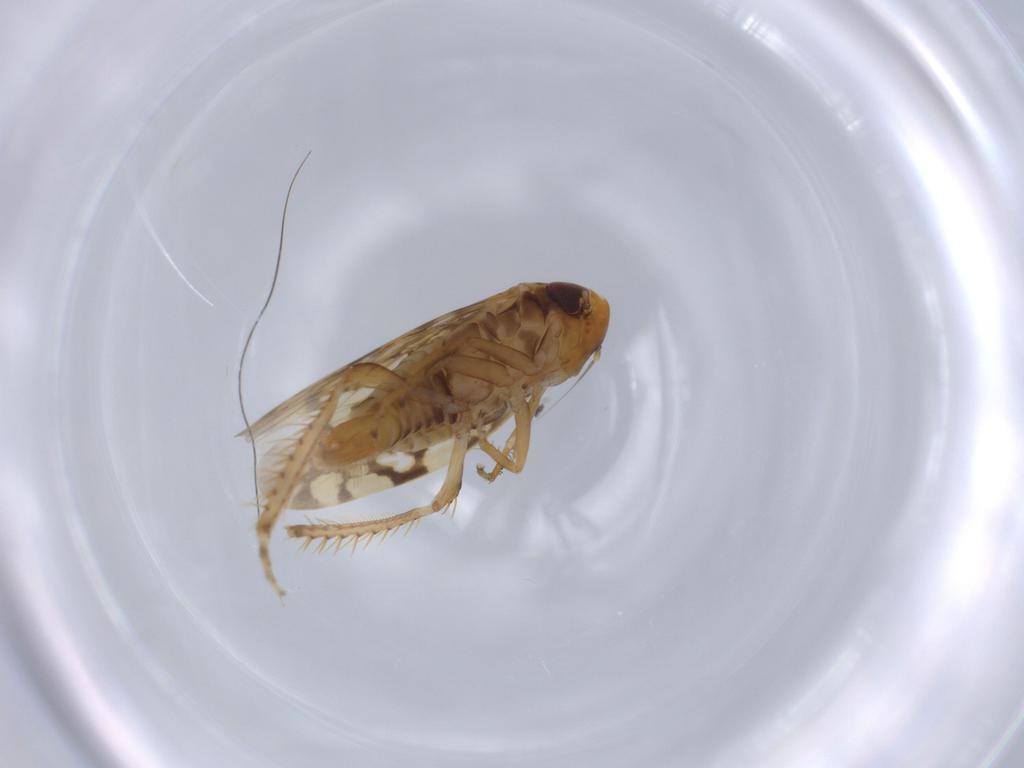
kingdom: Animalia
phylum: Arthropoda
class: Insecta
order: Hemiptera
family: Cicadellidae
